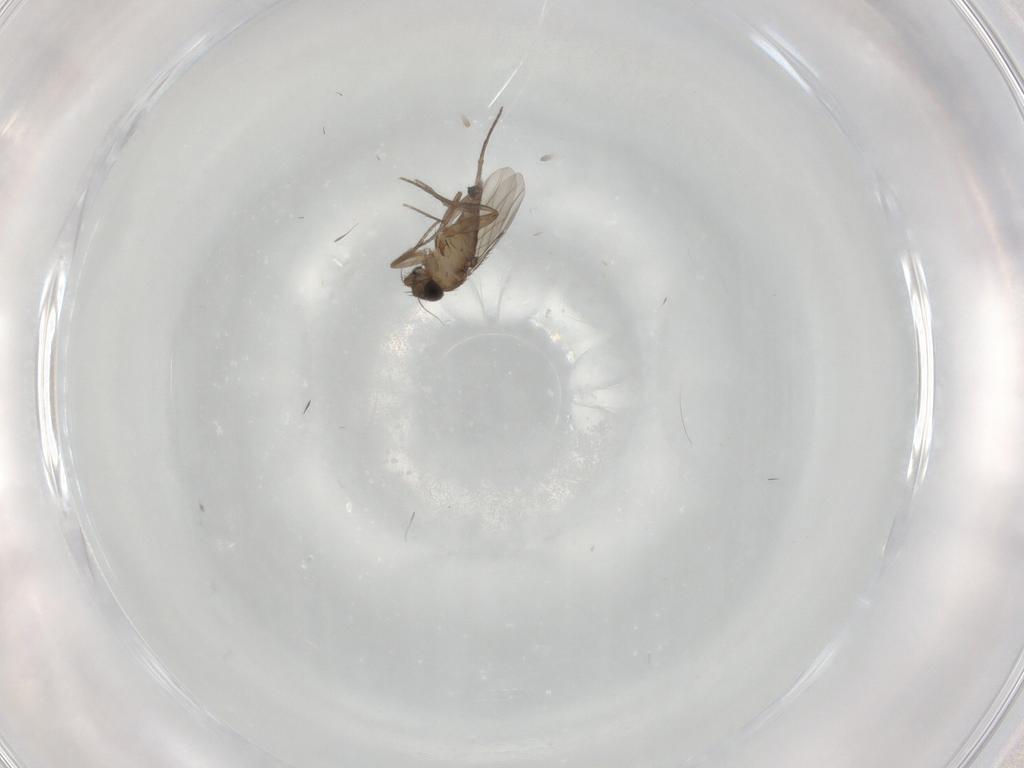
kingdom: Animalia
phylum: Arthropoda
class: Insecta
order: Diptera
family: Phoridae
